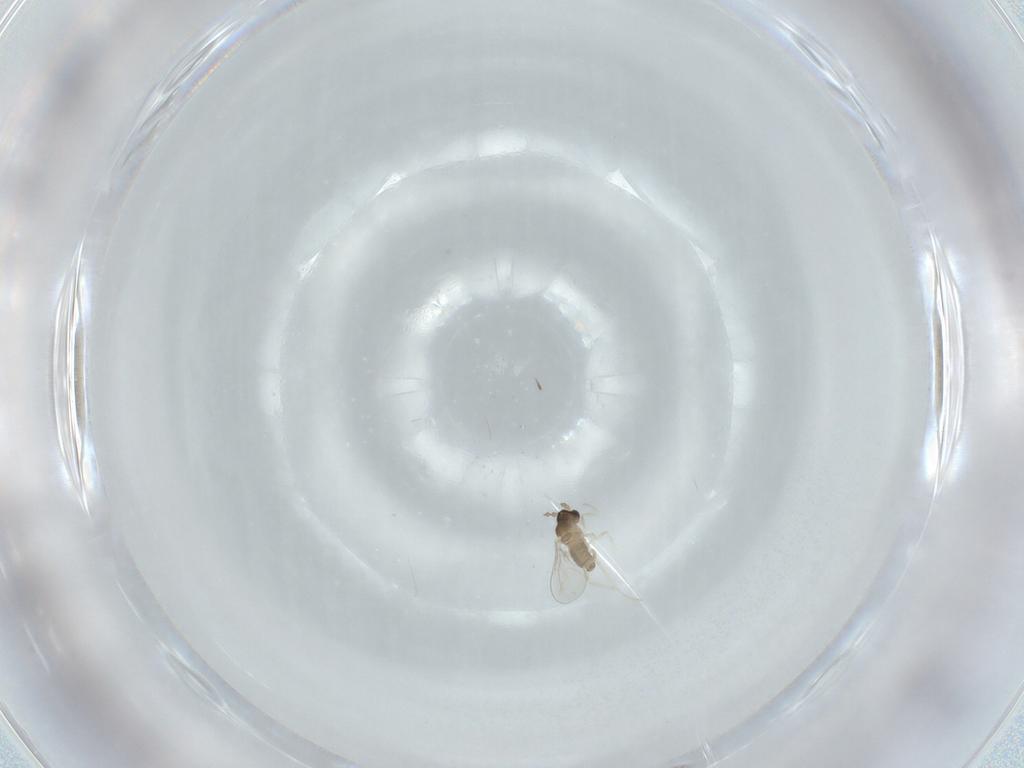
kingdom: Animalia
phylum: Arthropoda
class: Insecta
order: Diptera
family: Cecidomyiidae
